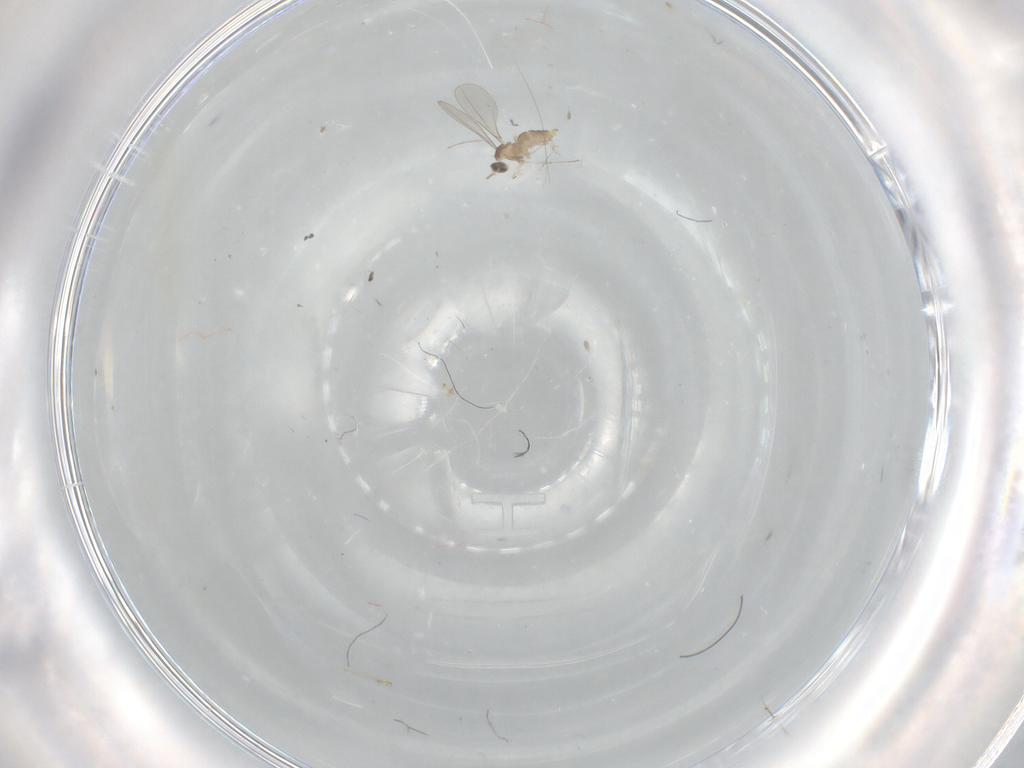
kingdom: Animalia
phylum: Arthropoda
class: Insecta
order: Diptera
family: Cecidomyiidae
